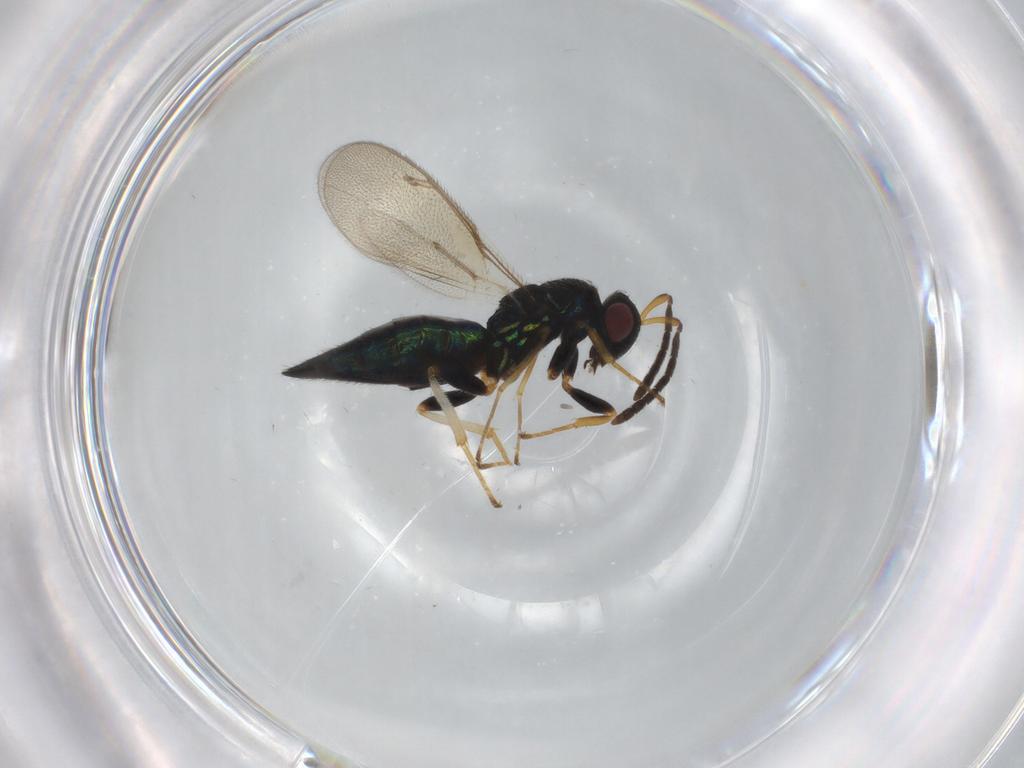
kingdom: Animalia
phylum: Arthropoda
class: Insecta
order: Hymenoptera
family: Pteromalidae
